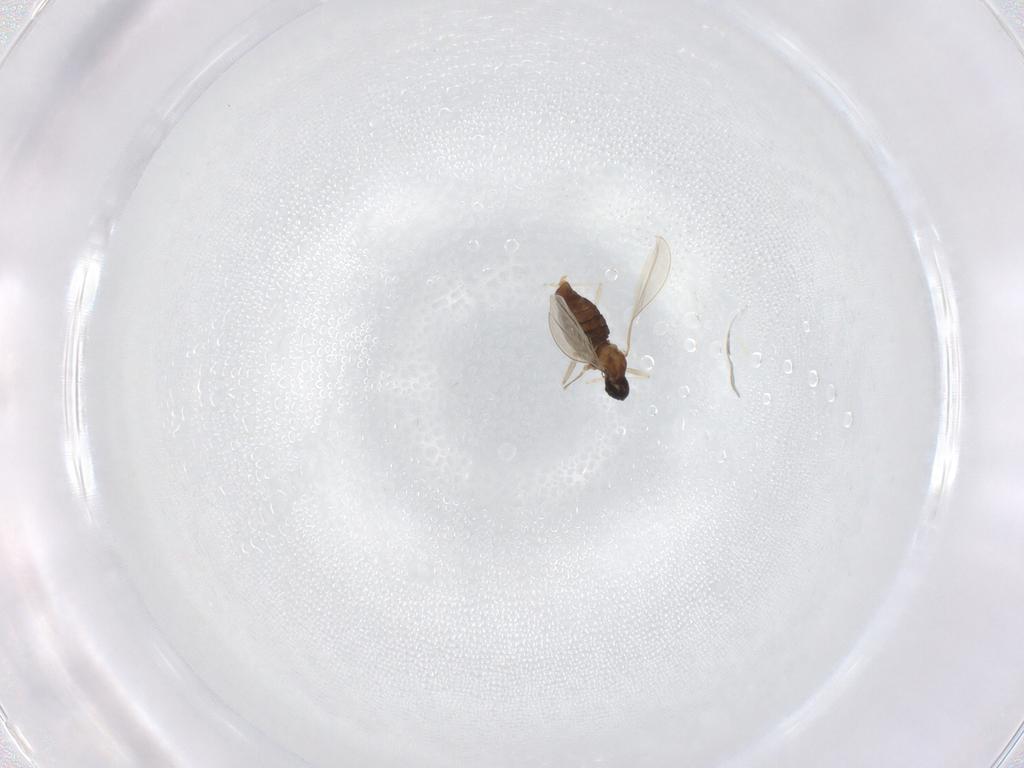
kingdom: Animalia
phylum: Arthropoda
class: Insecta
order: Diptera
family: Cecidomyiidae
